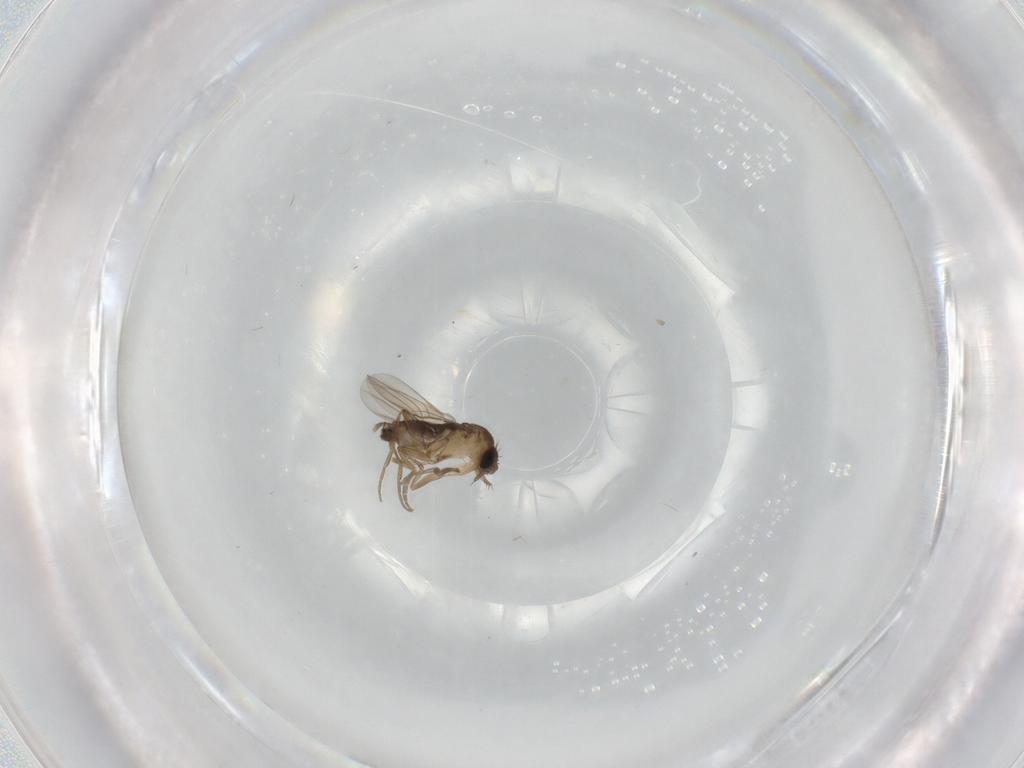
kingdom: Animalia
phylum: Arthropoda
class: Insecta
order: Diptera
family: Phoridae
